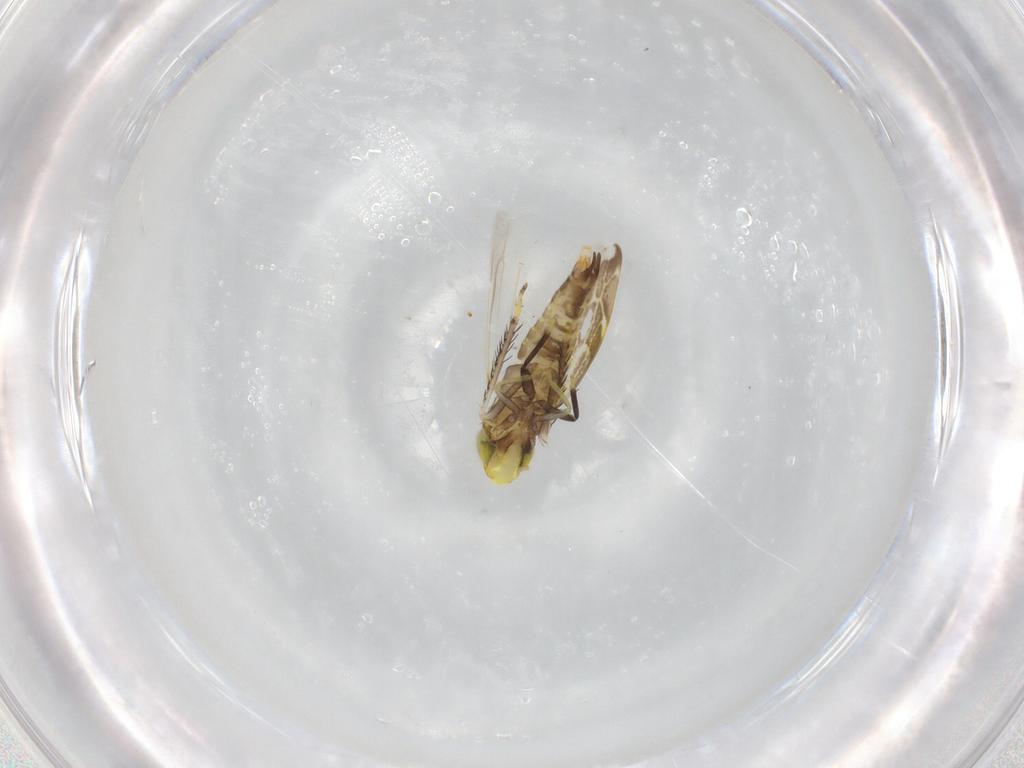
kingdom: Animalia
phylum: Arthropoda
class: Insecta
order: Hemiptera
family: Cicadellidae
